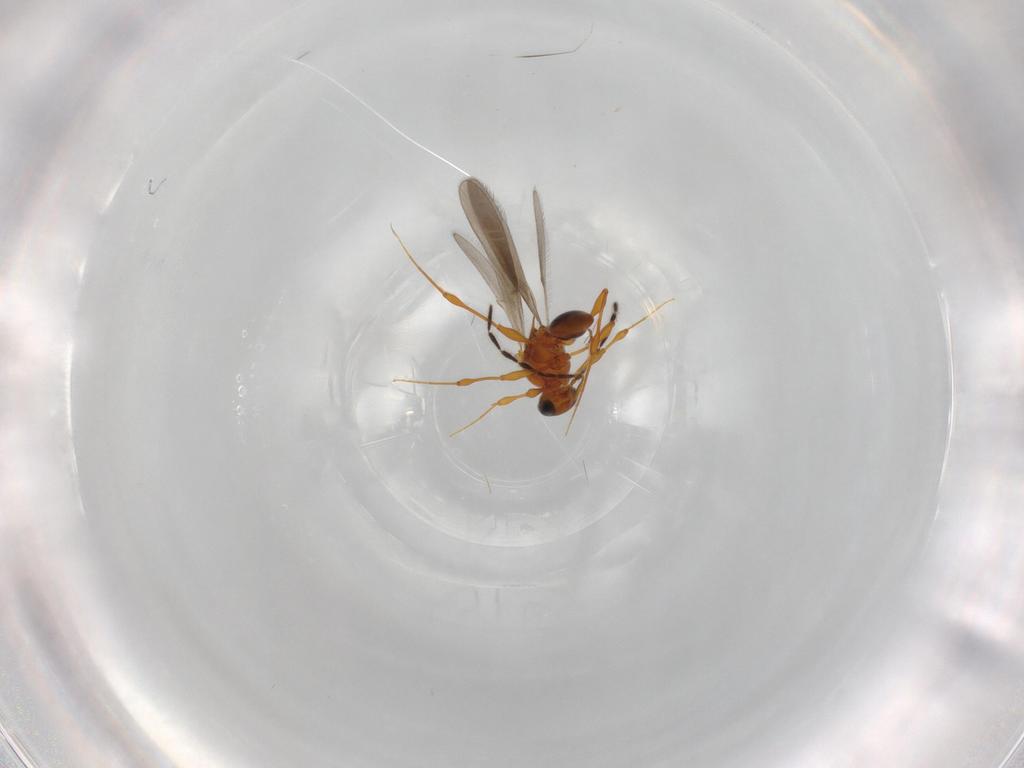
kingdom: Animalia
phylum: Arthropoda
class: Insecta
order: Hymenoptera
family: Platygastridae
